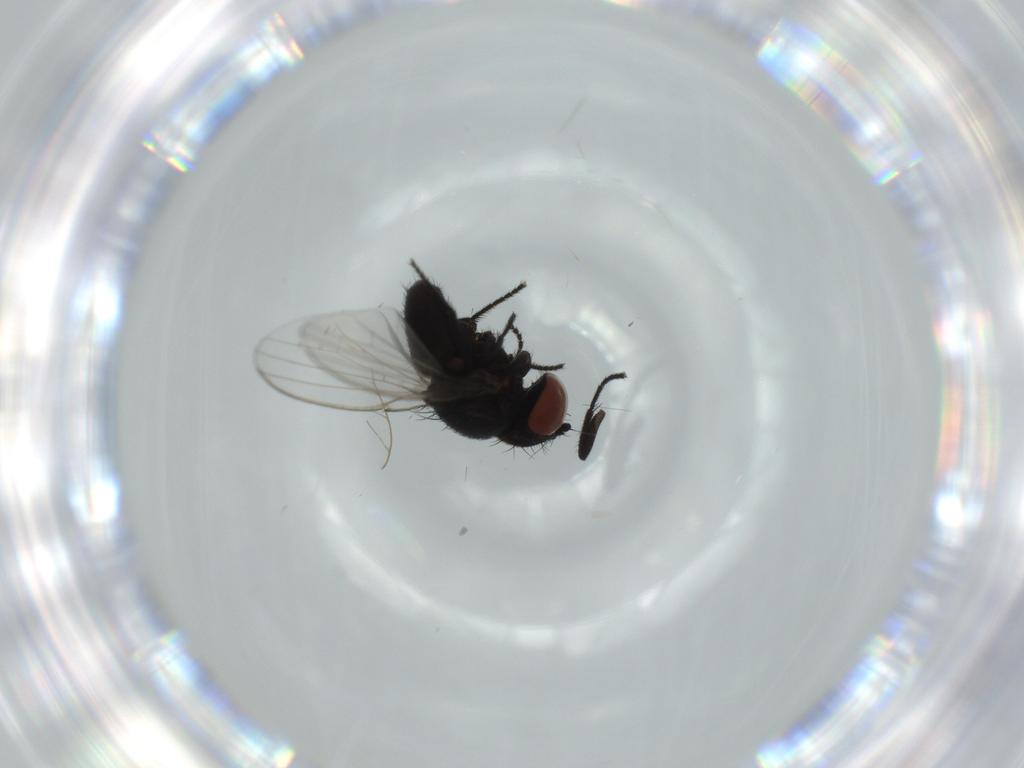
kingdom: Animalia
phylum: Arthropoda
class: Insecta
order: Diptera
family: Milichiidae
